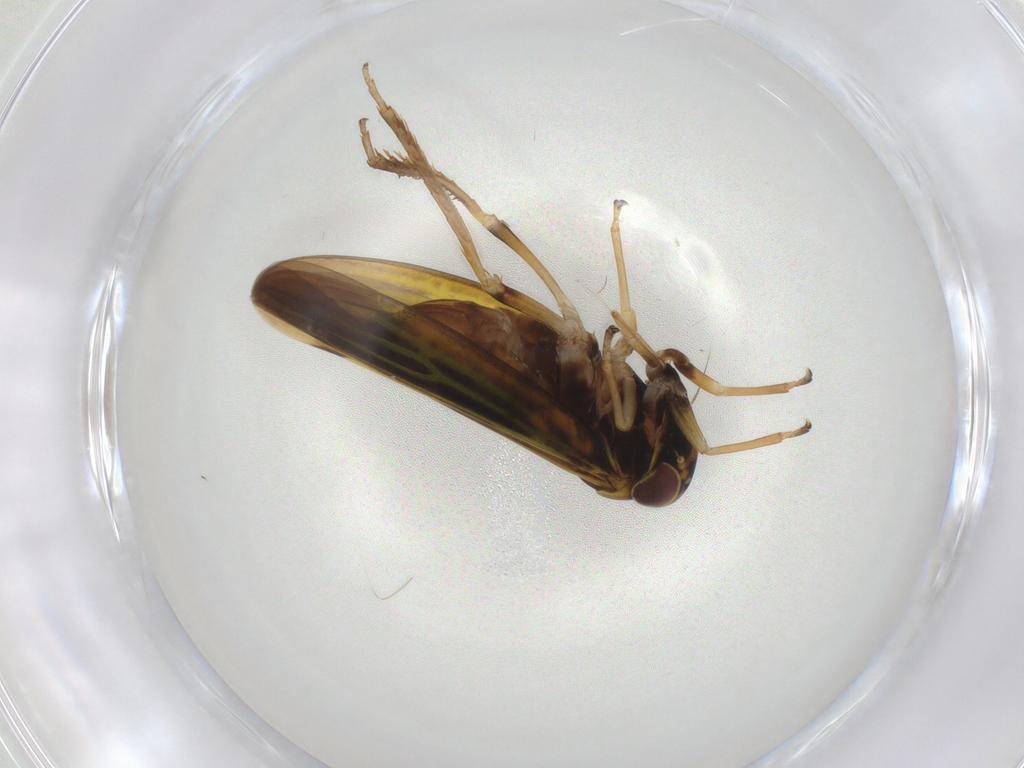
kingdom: Animalia
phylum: Arthropoda
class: Insecta
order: Hemiptera
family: Cicadellidae
